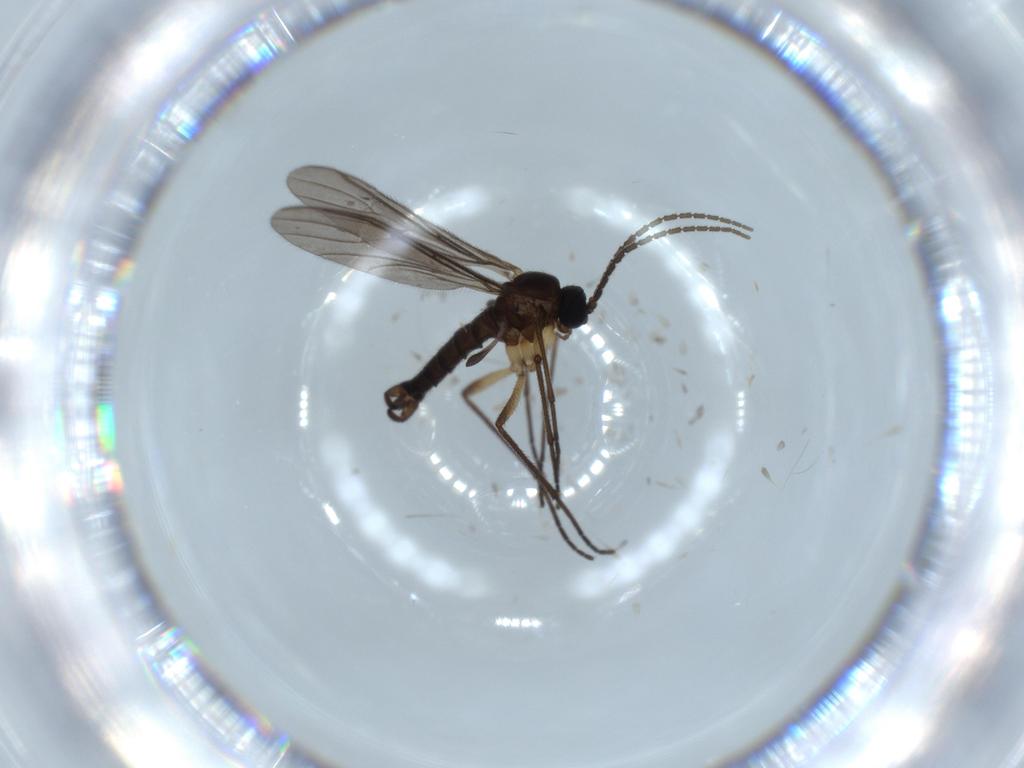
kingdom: Animalia
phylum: Arthropoda
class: Insecta
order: Diptera
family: Sciaridae
